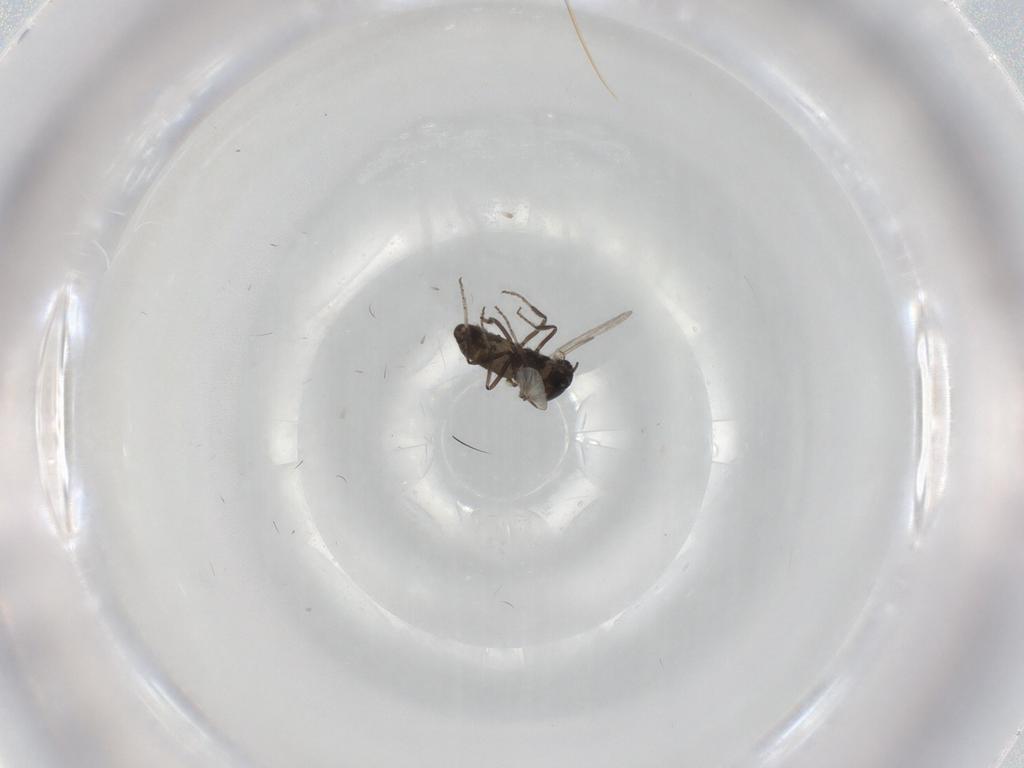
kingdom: Animalia
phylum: Arthropoda
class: Insecta
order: Diptera
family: Ceratopogonidae
